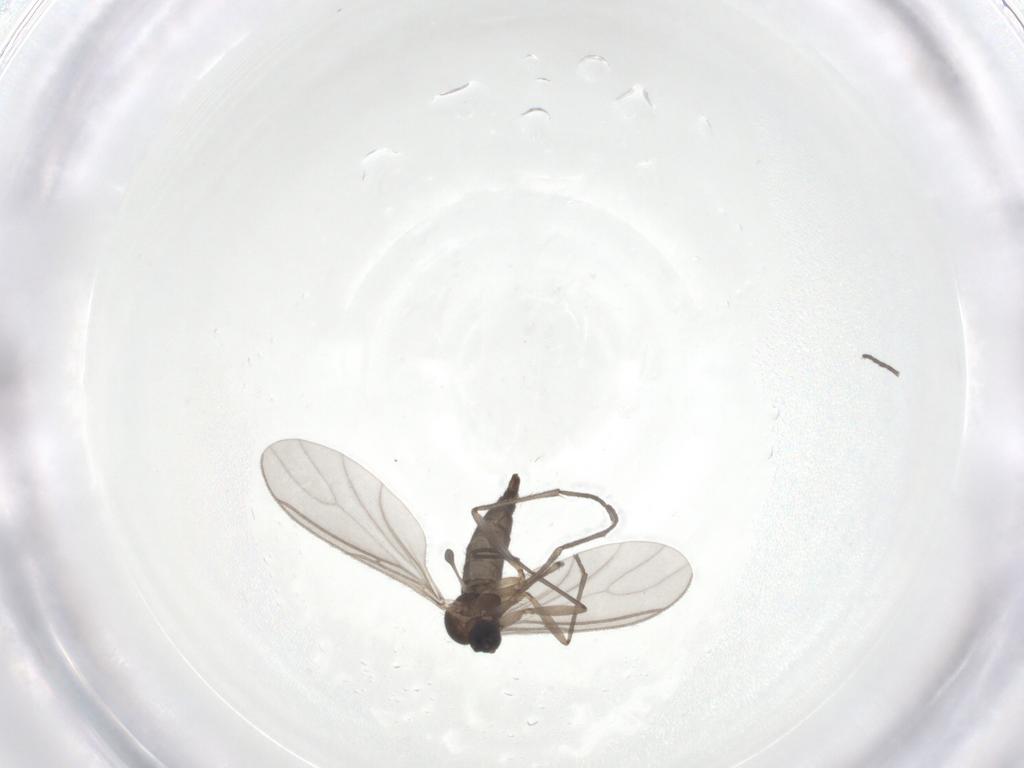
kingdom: Animalia
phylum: Arthropoda
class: Insecta
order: Diptera
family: Sciaridae
